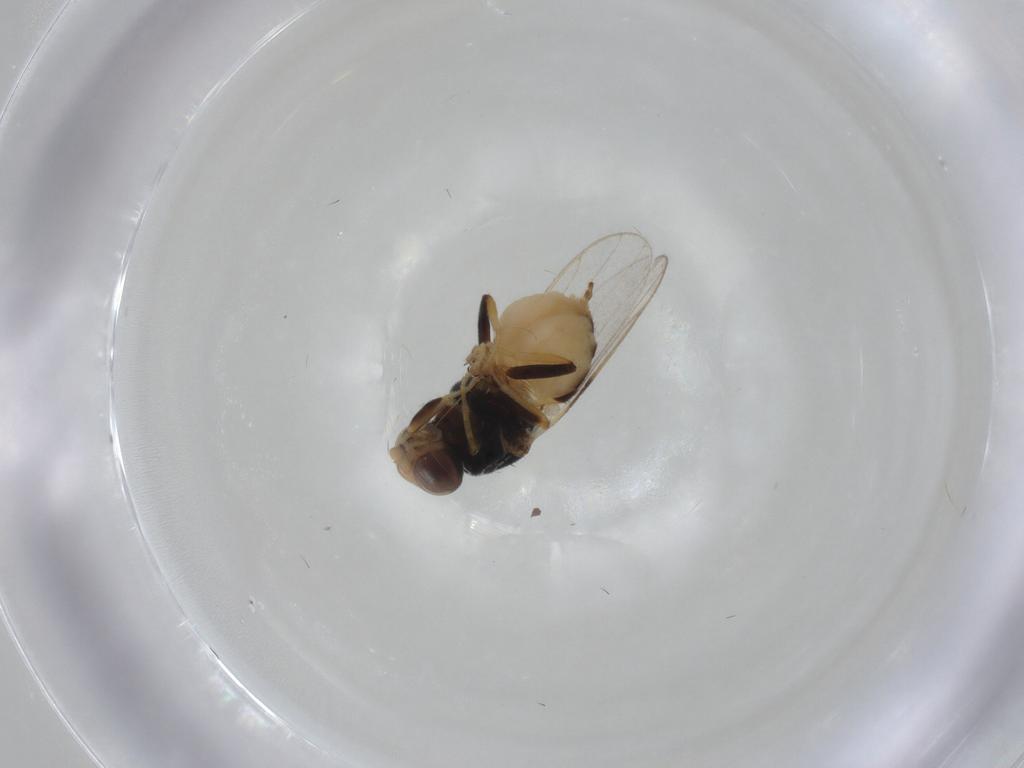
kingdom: Animalia
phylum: Arthropoda
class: Insecta
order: Diptera
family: Chloropidae
